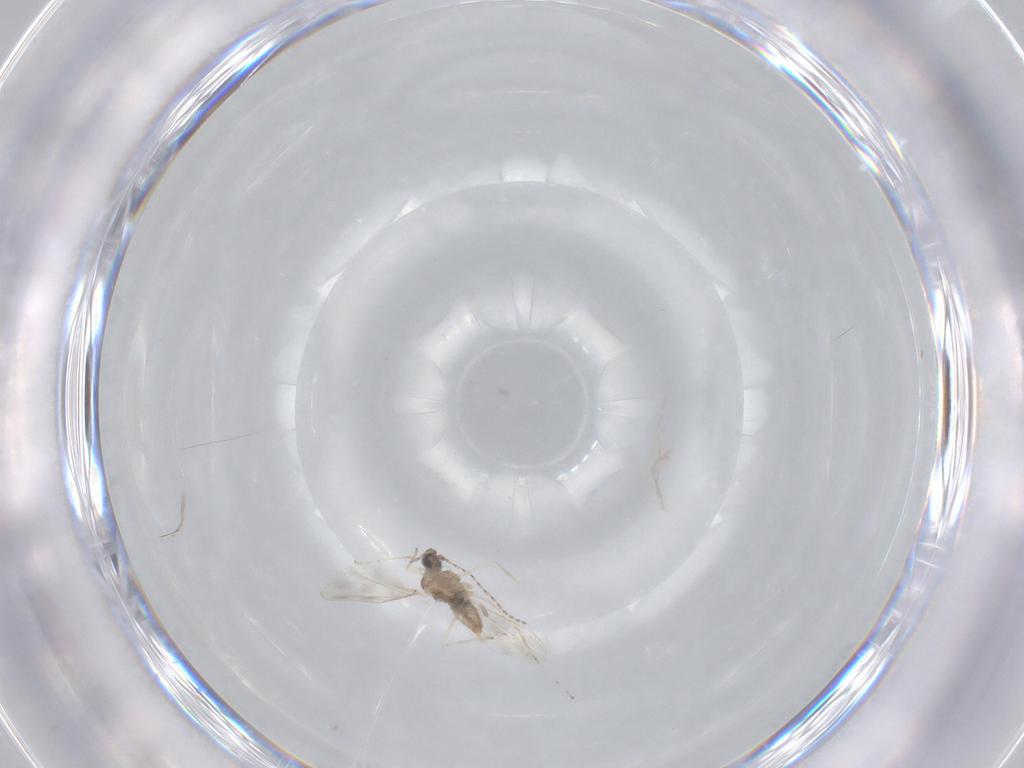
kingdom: Animalia
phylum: Arthropoda
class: Insecta
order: Diptera
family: Cecidomyiidae
